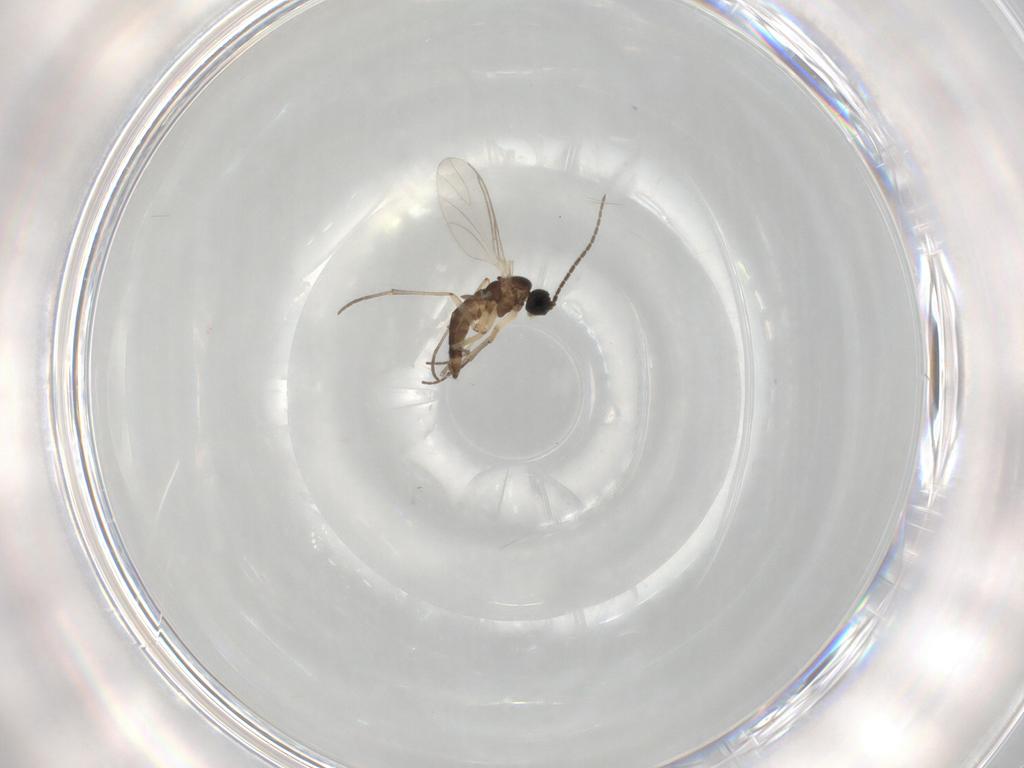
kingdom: Animalia
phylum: Arthropoda
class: Insecta
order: Diptera
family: Sciaridae
